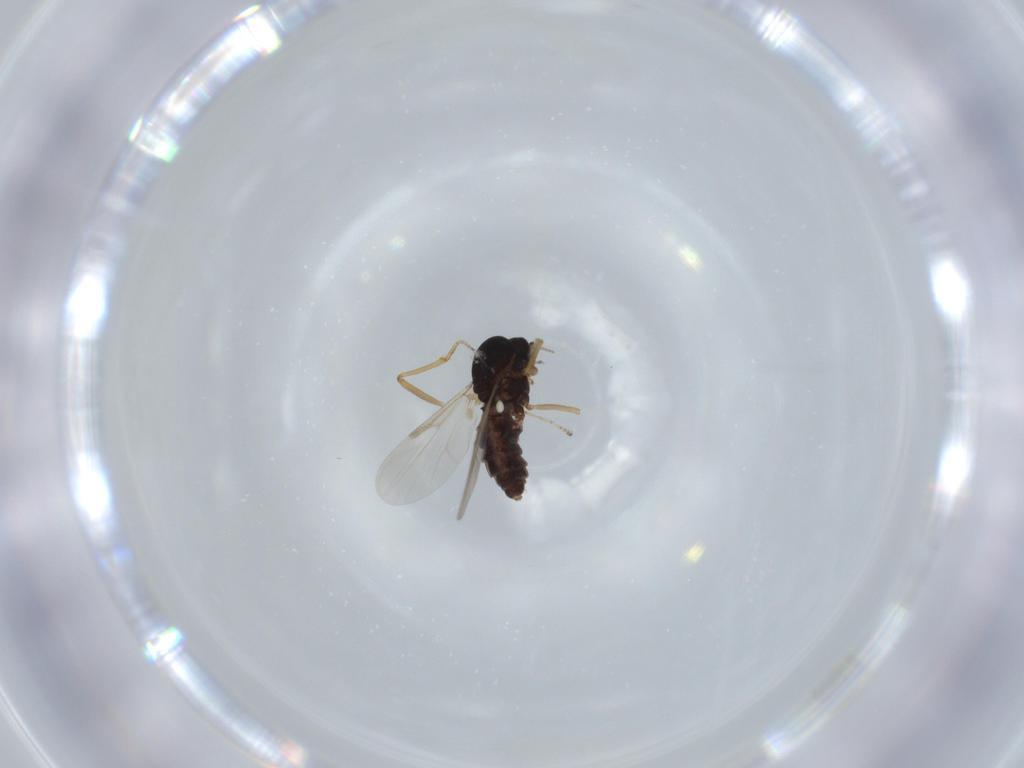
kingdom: Animalia
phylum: Arthropoda
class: Insecta
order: Diptera
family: Ceratopogonidae
